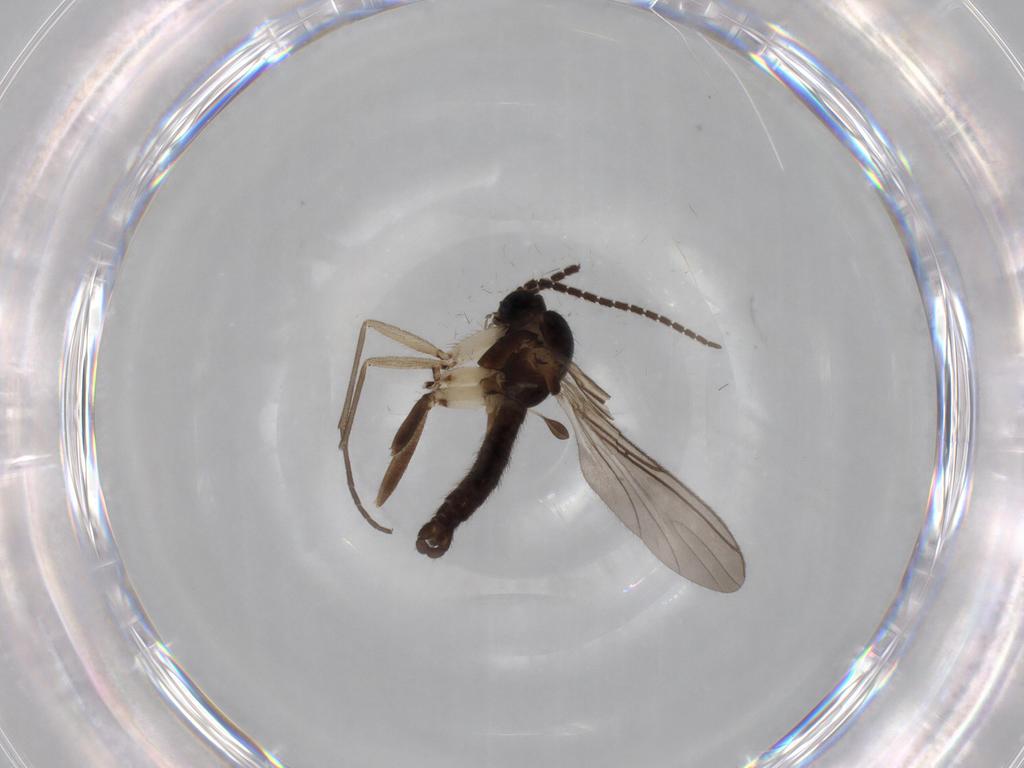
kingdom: Animalia
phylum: Arthropoda
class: Insecta
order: Diptera
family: Sciaridae
